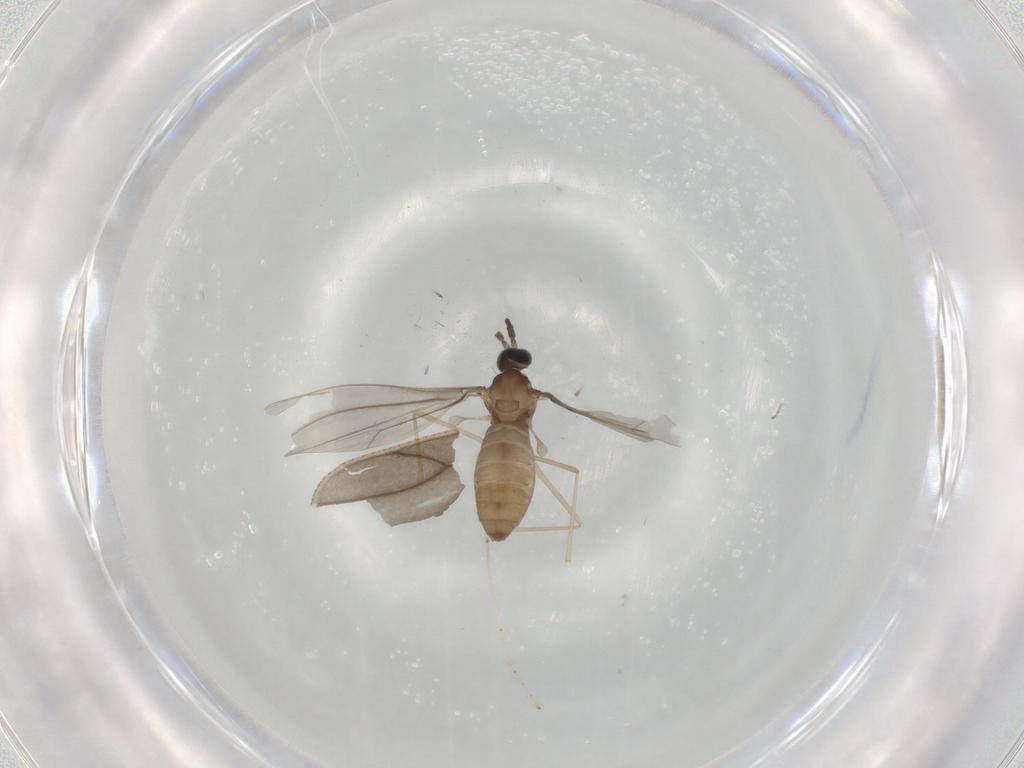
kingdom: Animalia
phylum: Arthropoda
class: Insecta
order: Diptera
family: Cecidomyiidae
